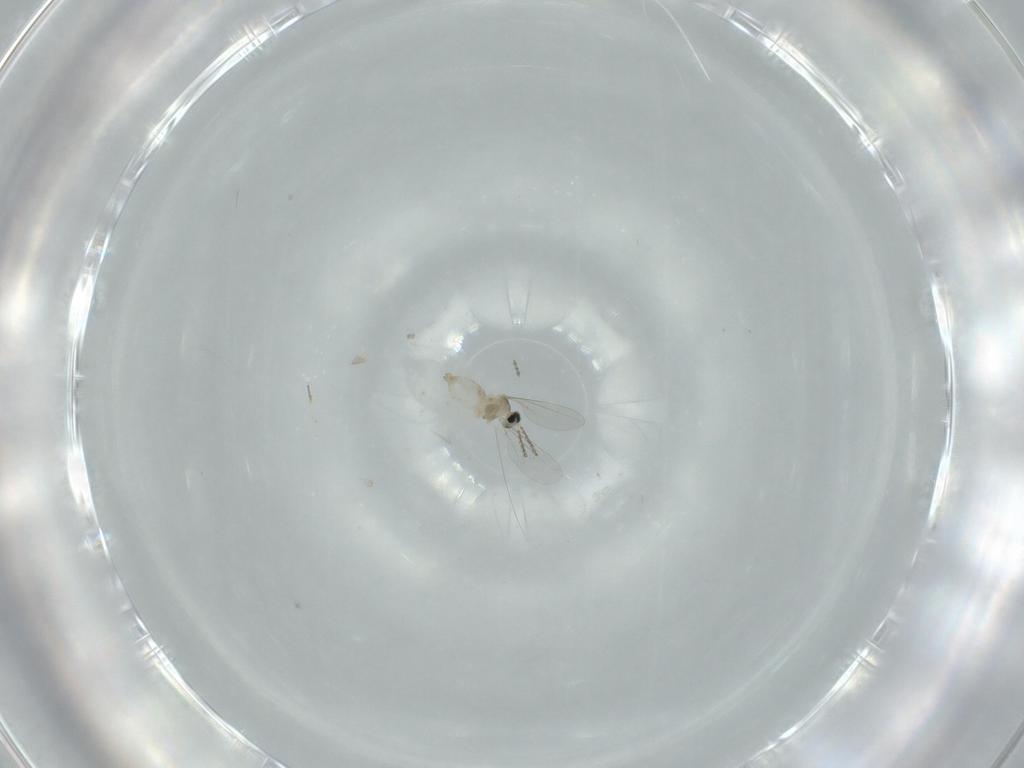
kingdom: Animalia
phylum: Arthropoda
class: Insecta
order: Diptera
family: Cecidomyiidae
